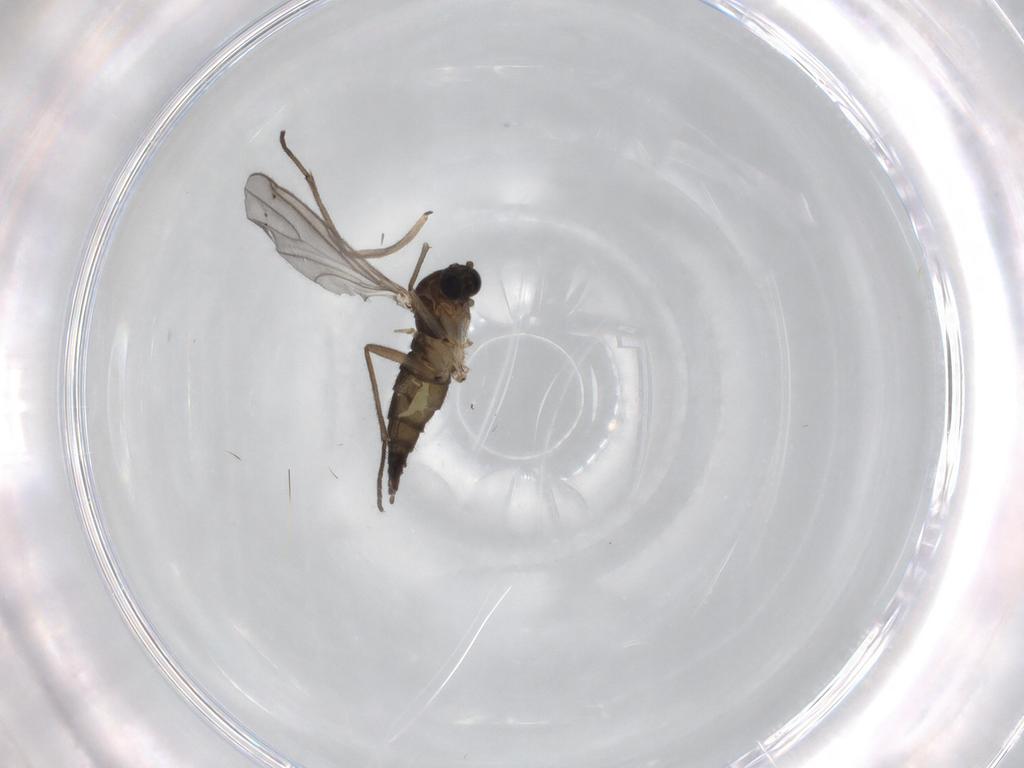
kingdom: Animalia
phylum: Arthropoda
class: Insecta
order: Diptera
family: Sciaridae
